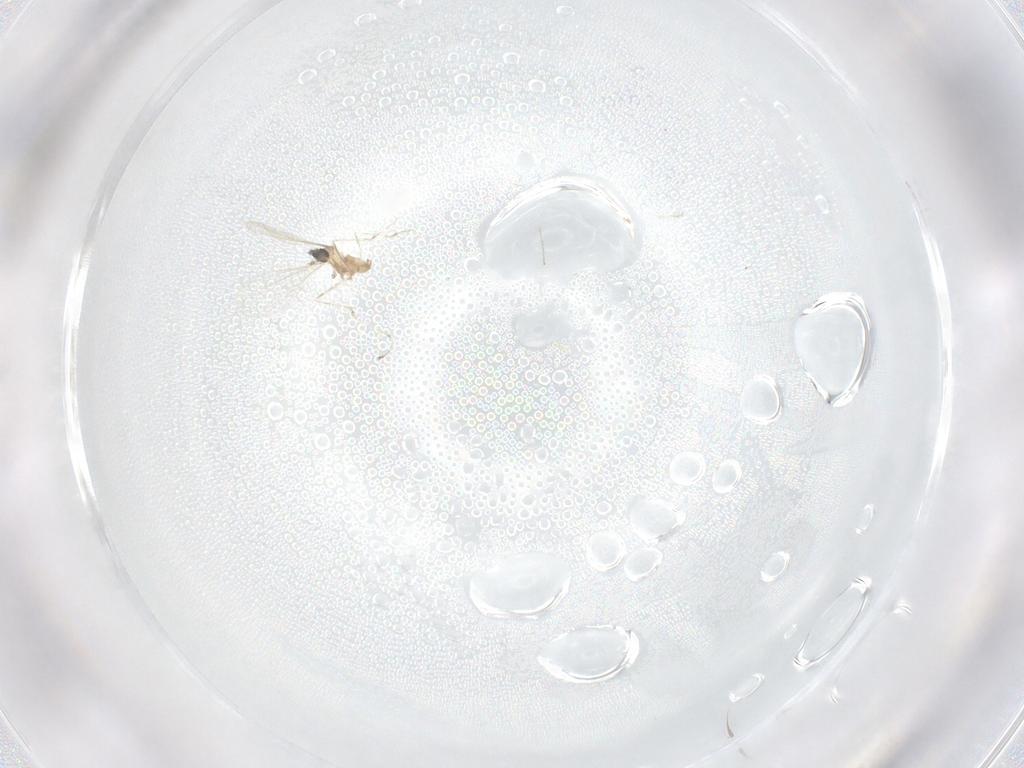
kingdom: Animalia
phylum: Arthropoda
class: Insecta
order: Diptera
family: Cecidomyiidae
